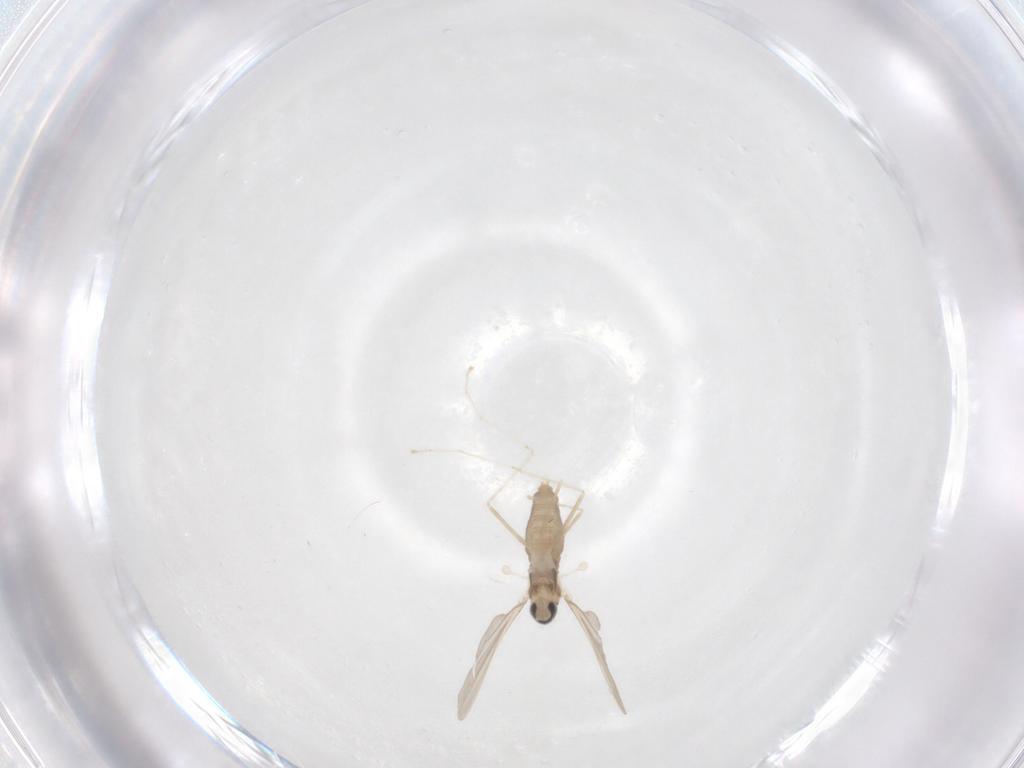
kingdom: Animalia
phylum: Arthropoda
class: Insecta
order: Diptera
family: Cecidomyiidae
